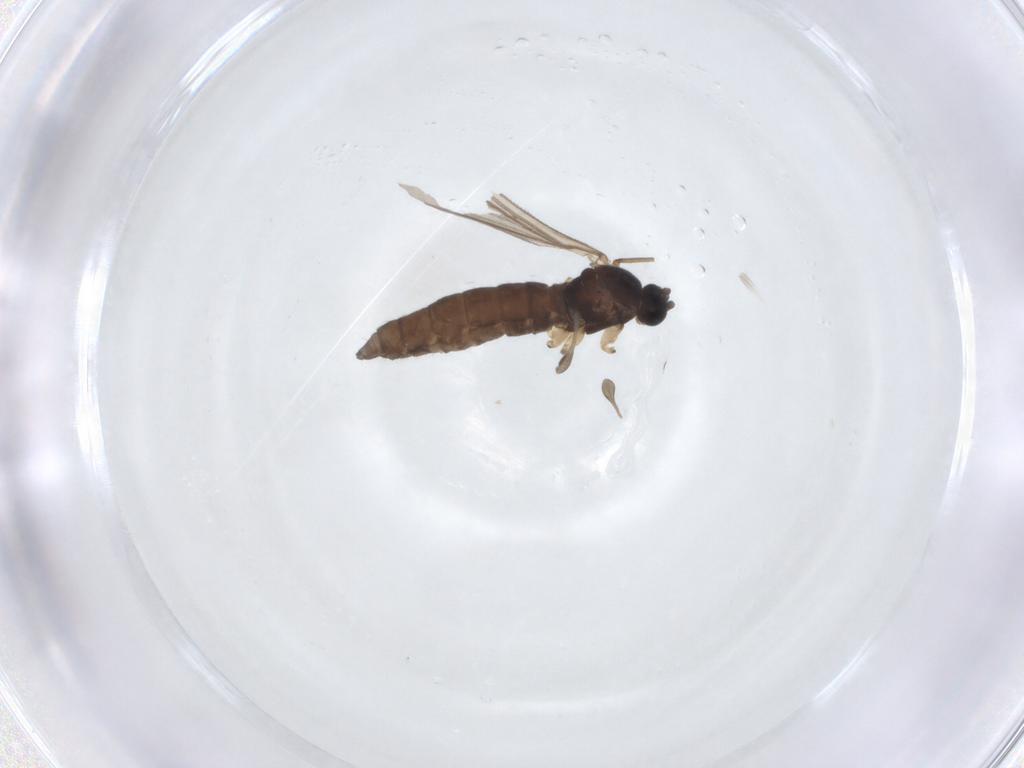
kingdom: Animalia
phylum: Arthropoda
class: Insecta
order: Diptera
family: Sciaridae
